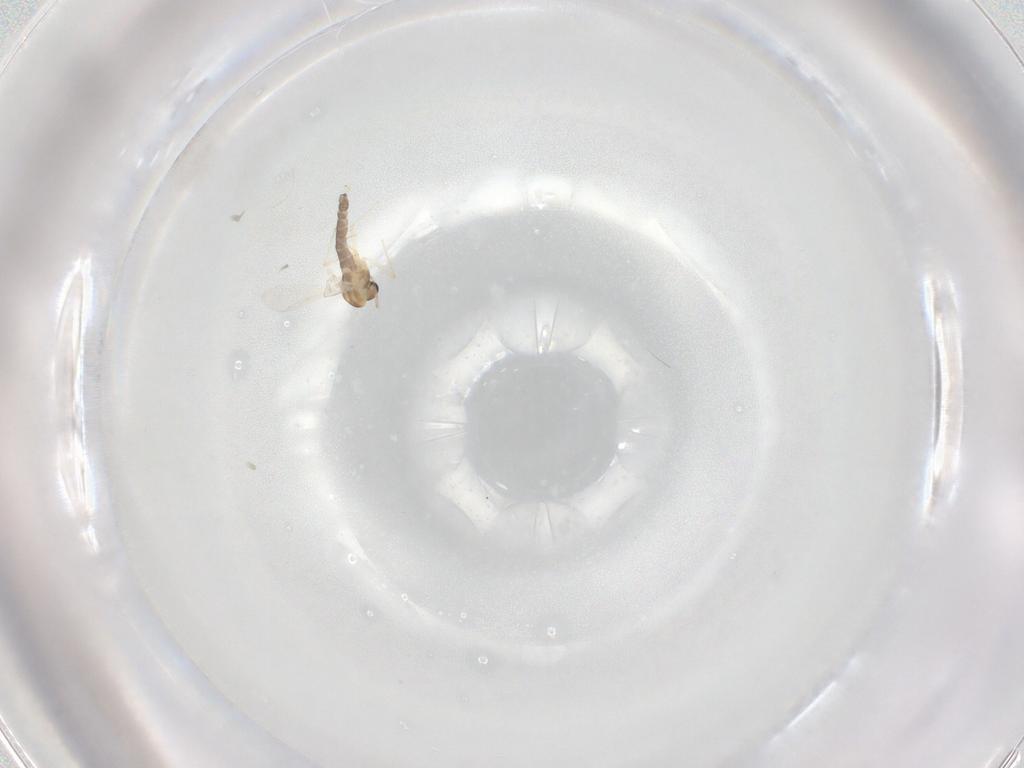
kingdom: Animalia
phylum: Arthropoda
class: Insecta
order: Diptera
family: Chironomidae
